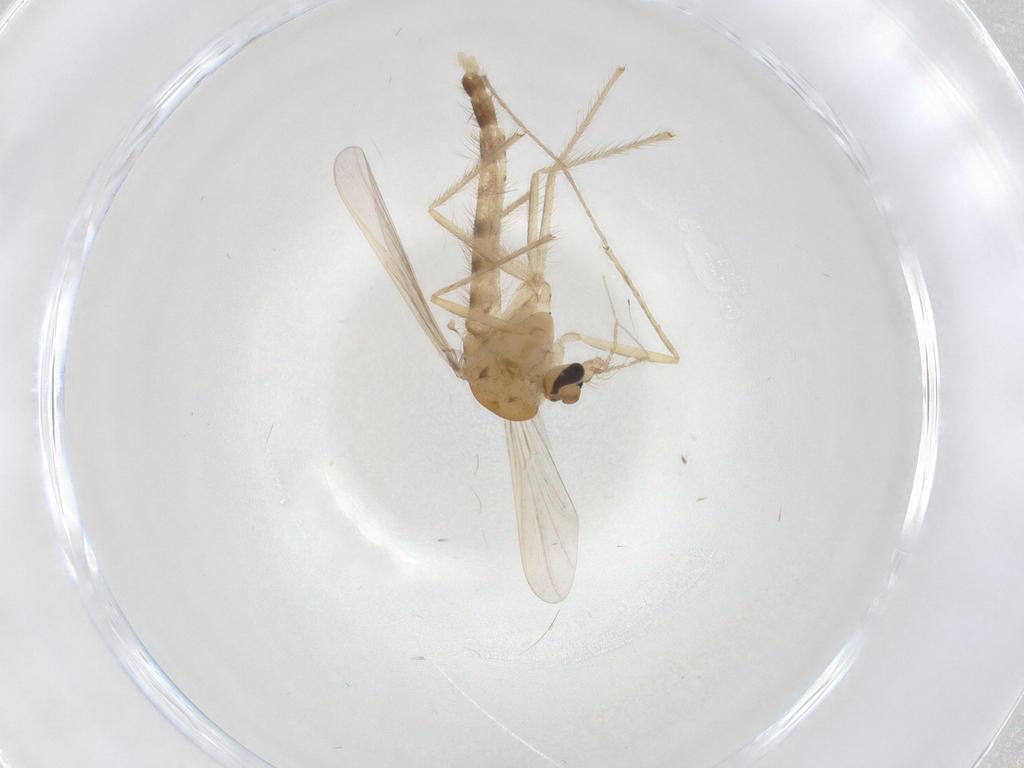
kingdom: Animalia
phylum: Arthropoda
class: Insecta
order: Diptera
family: Chironomidae
